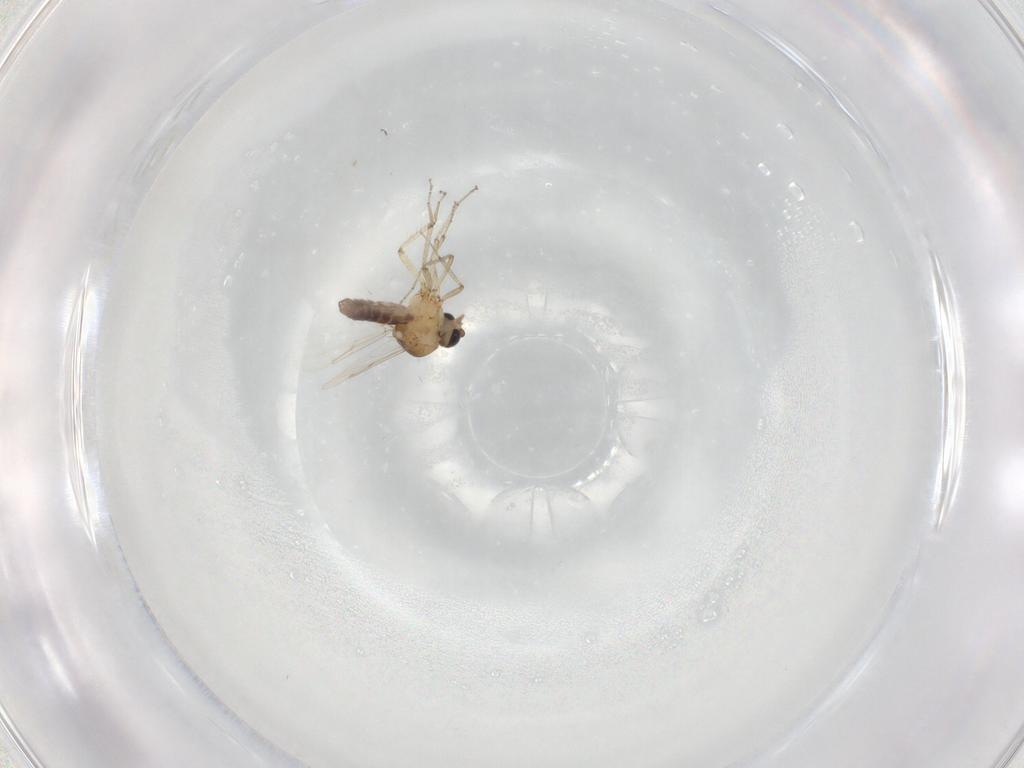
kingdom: Animalia
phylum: Arthropoda
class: Insecta
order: Diptera
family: Ceratopogonidae
